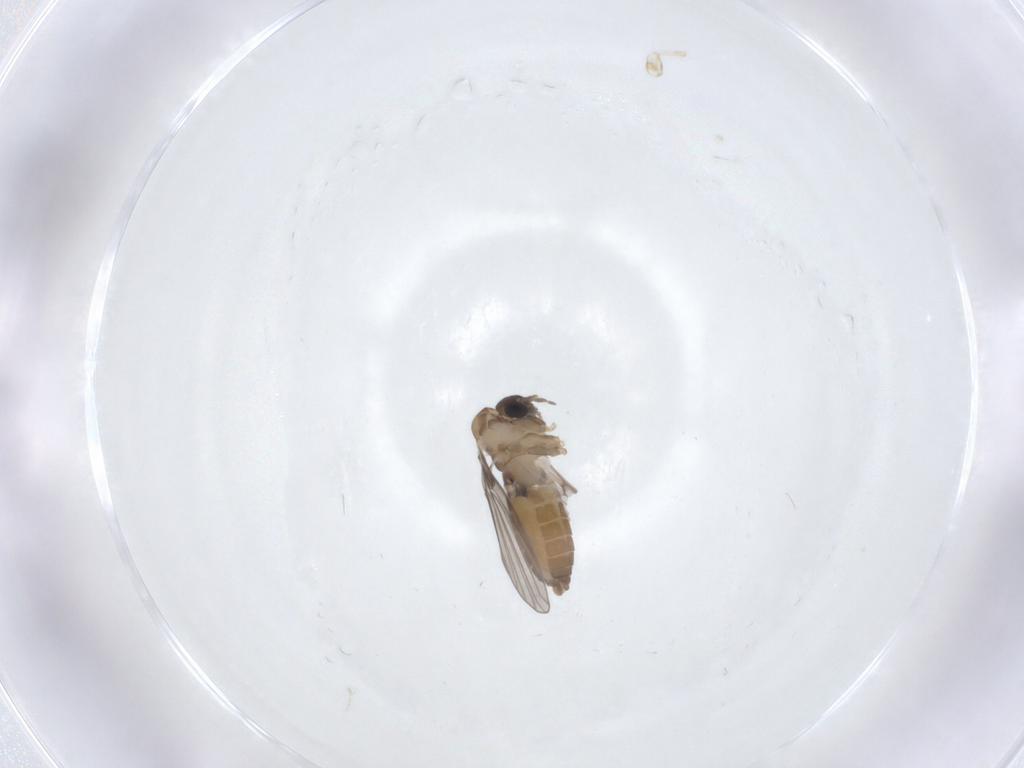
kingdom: Animalia
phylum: Arthropoda
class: Insecta
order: Diptera
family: Psychodidae
